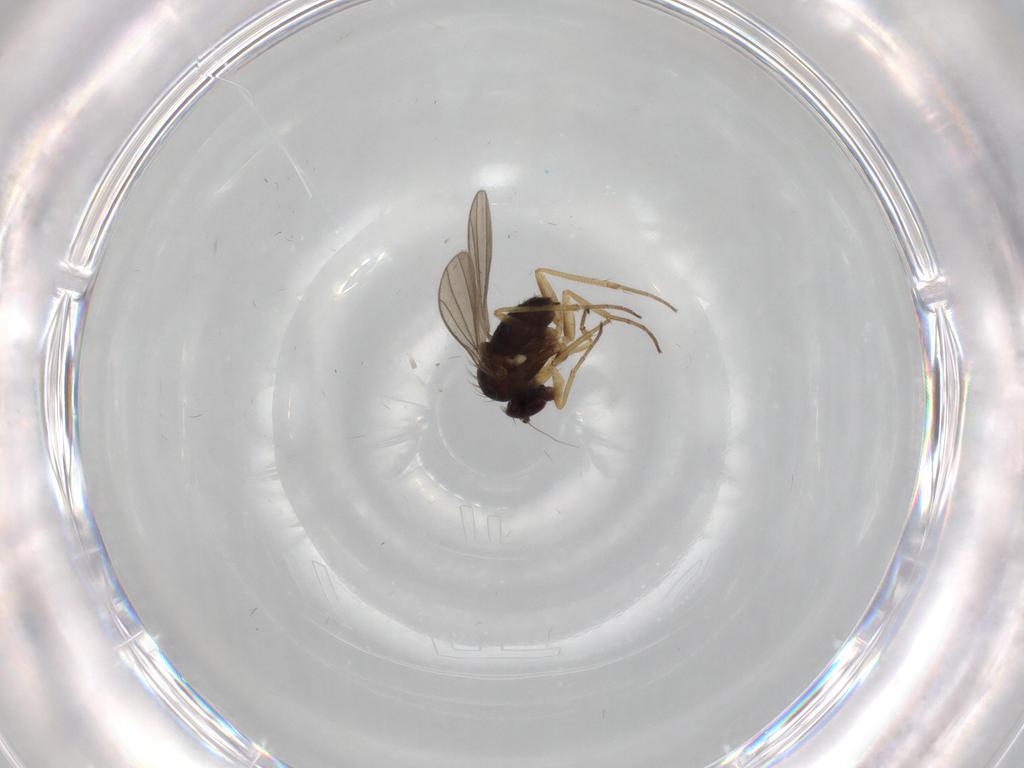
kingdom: Animalia
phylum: Arthropoda
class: Insecta
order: Diptera
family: Dolichopodidae
